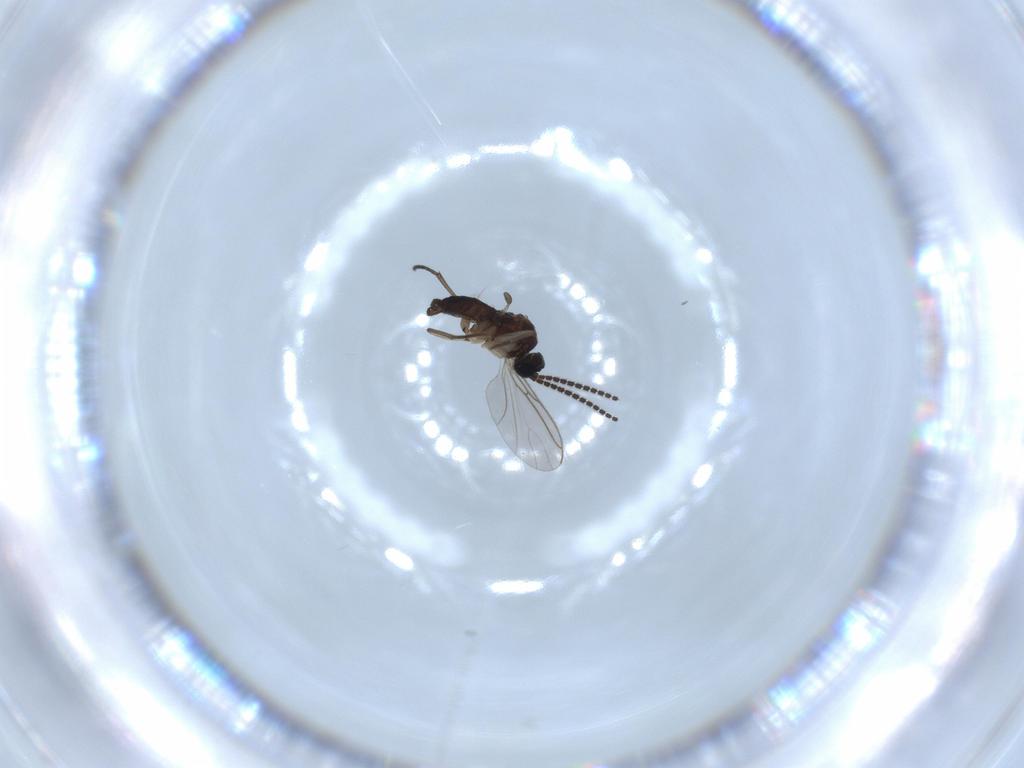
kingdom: Animalia
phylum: Arthropoda
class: Insecta
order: Diptera
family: Sciaridae
